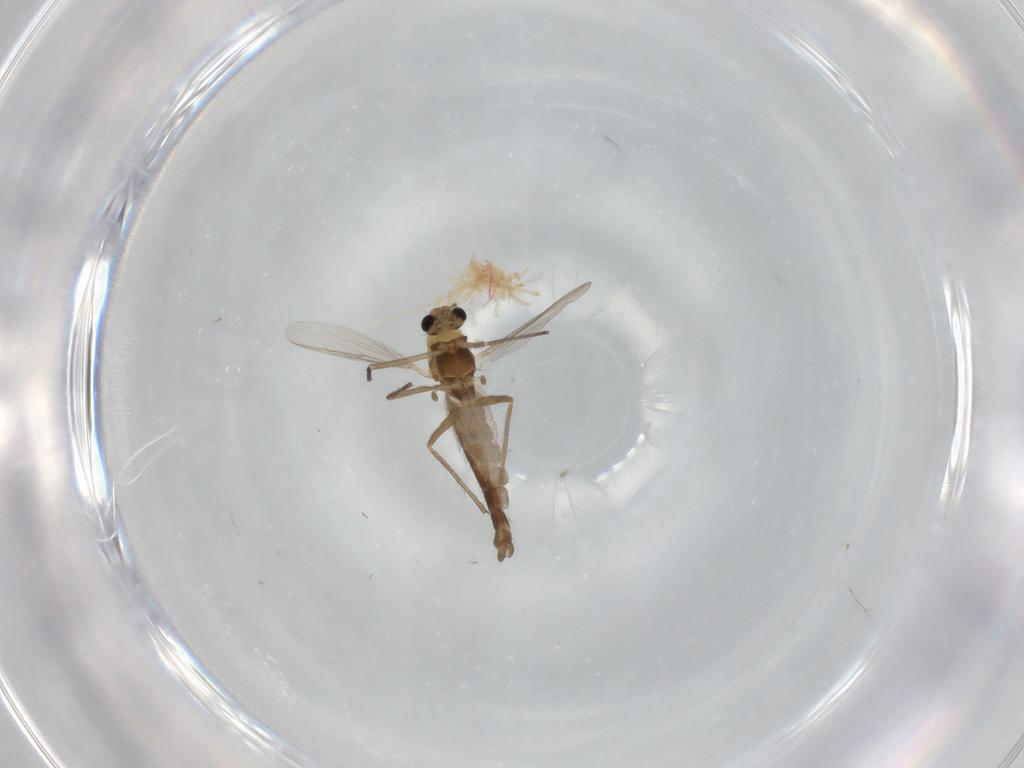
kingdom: Animalia
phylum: Arthropoda
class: Insecta
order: Diptera
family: Chironomidae
